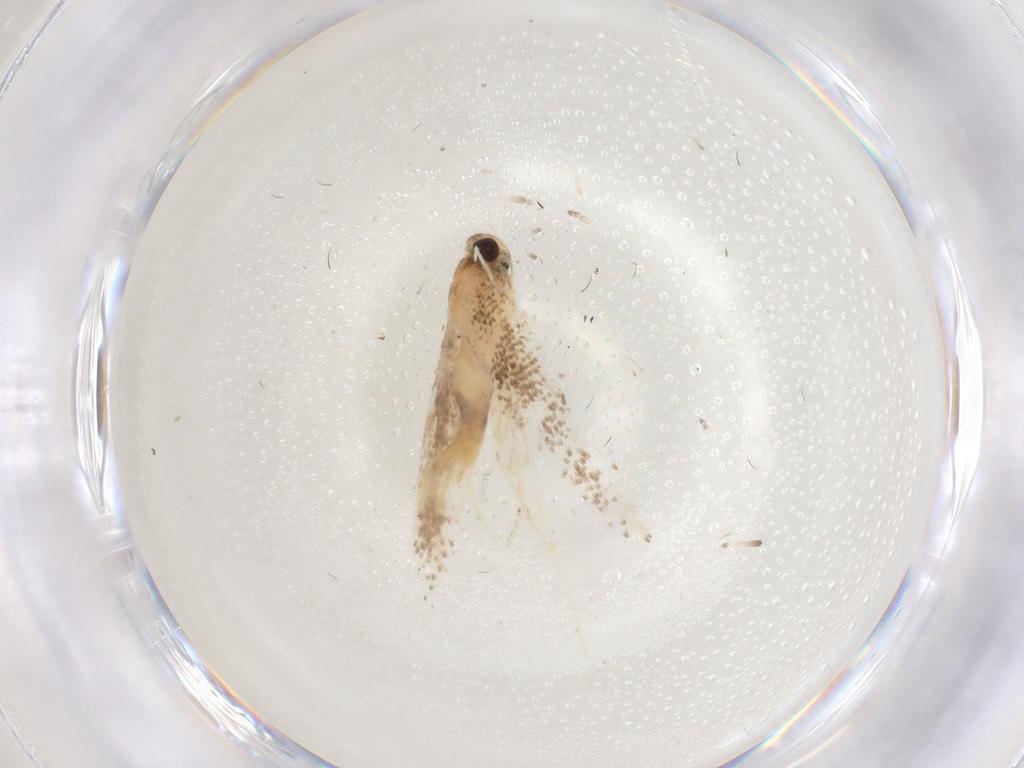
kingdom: Animalia
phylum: Arthropoda
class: Insecta
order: Lepidoptera
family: Gelechiidae
